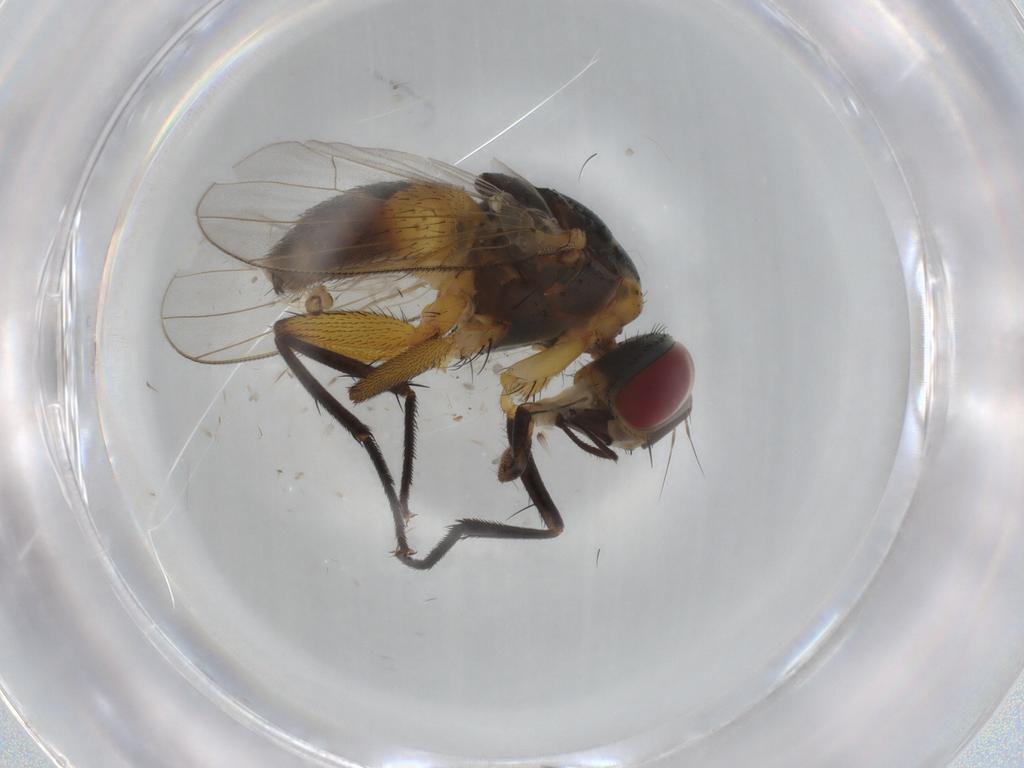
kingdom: Animalia
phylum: Arthropoda
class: Insecta
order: Diptera
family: Muscidae
